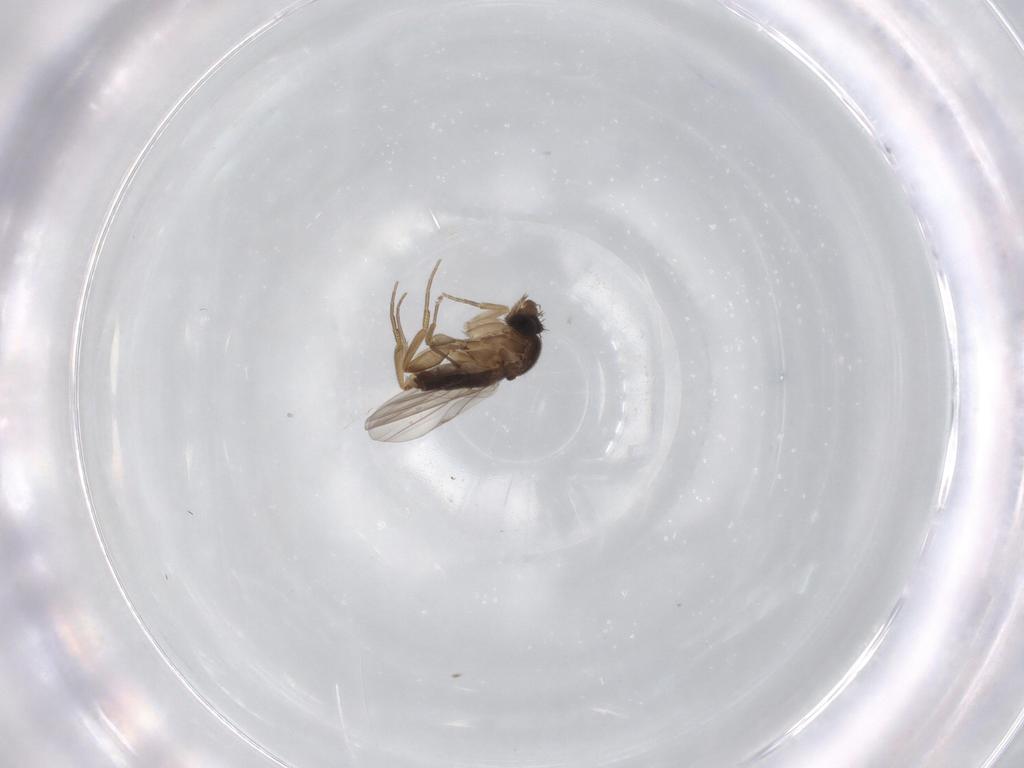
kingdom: Animalia
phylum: Arthropoda
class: Insecta
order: Diptera
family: Phoridae
